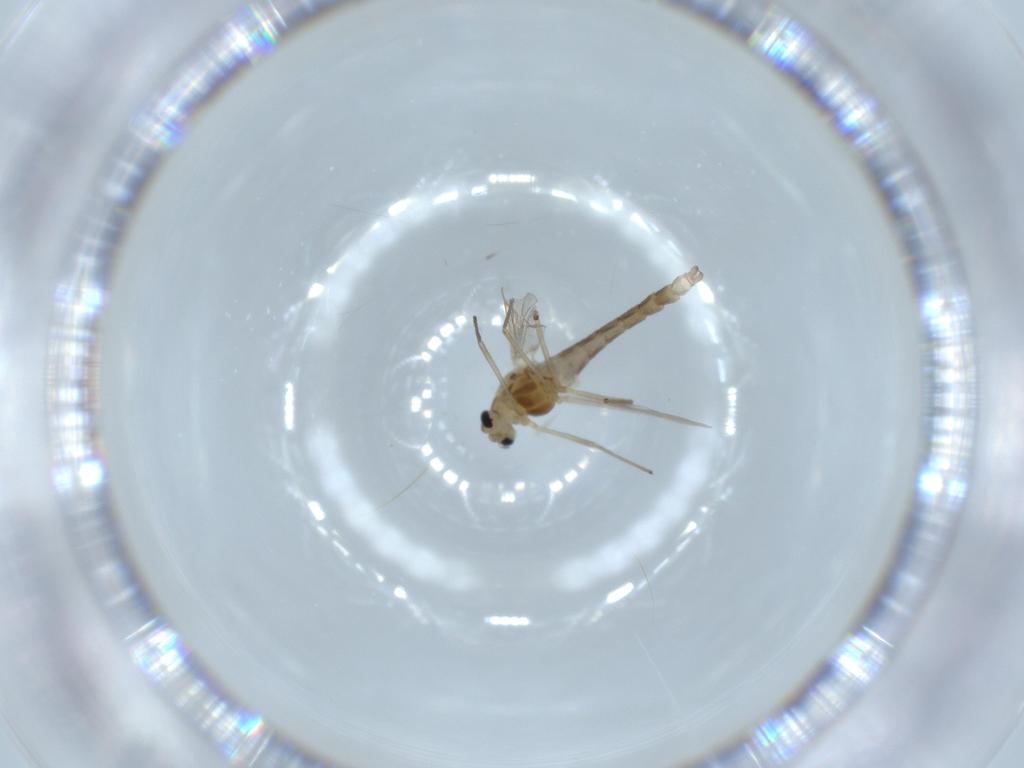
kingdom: Animalia
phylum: Arthropoda
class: Insecta
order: Diptera
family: Chironomidae
